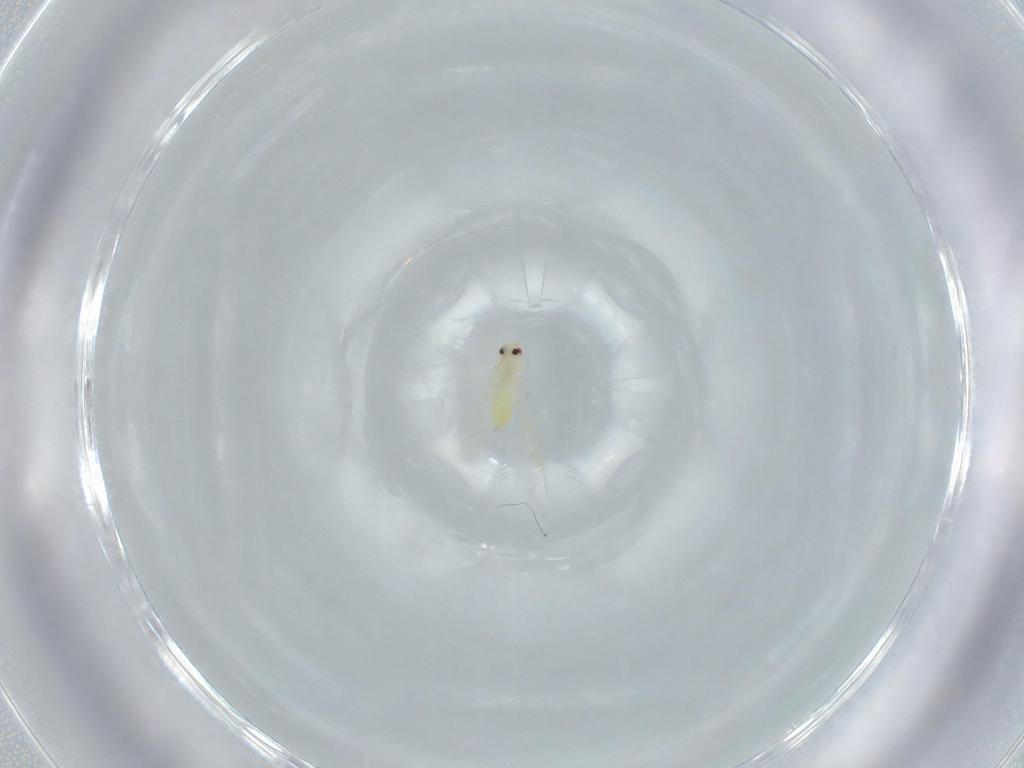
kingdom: Animalia
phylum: Arthropoda
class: Insecta
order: Hemiptera
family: Aleyrodidae
